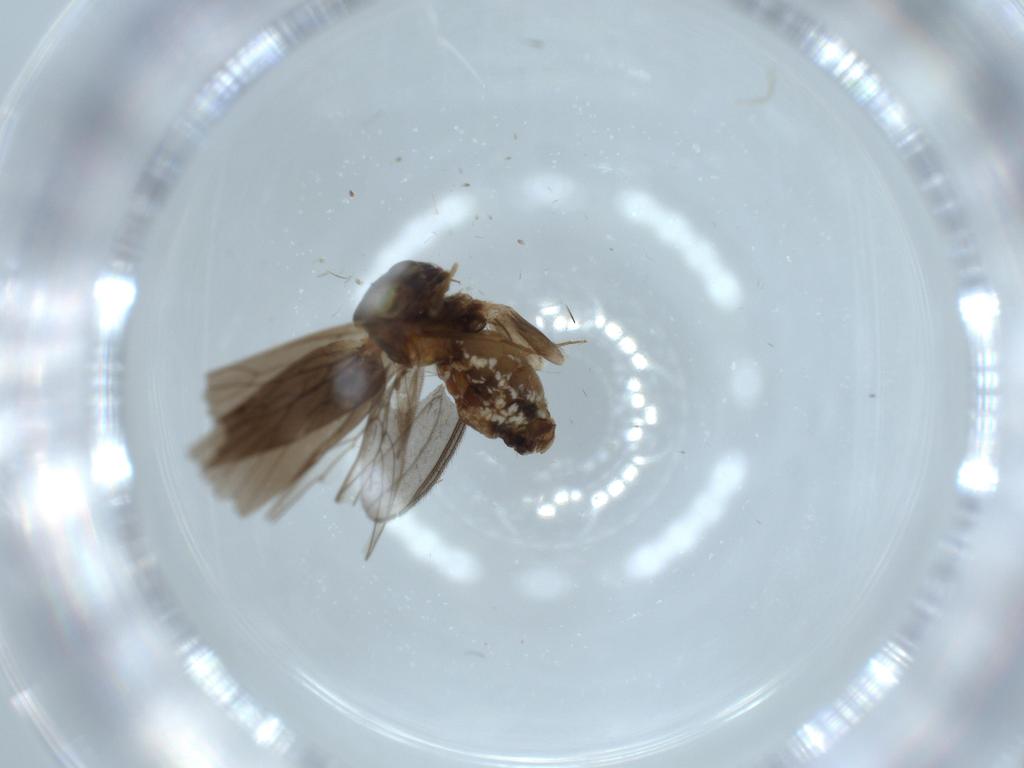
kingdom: Animalia
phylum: Arthropoda
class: Insecta
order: Psocodea
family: Lepidopsocidae
